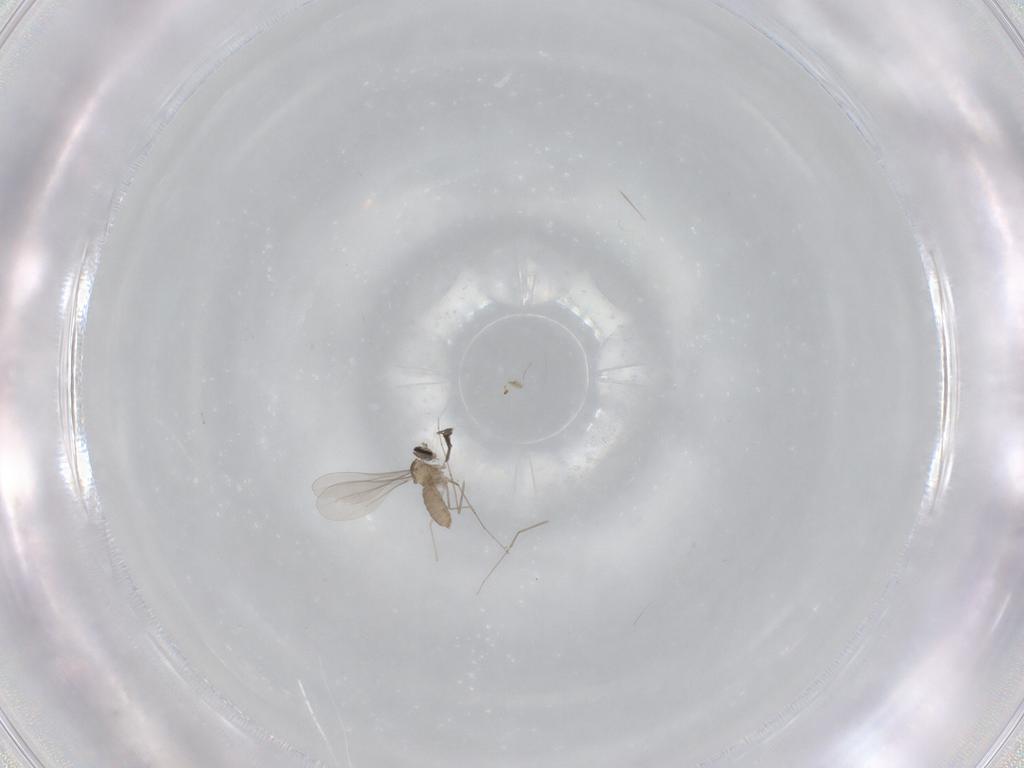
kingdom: Animalia
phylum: Arthropoda
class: Insecta
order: Diptera
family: Cecidomyiidae
